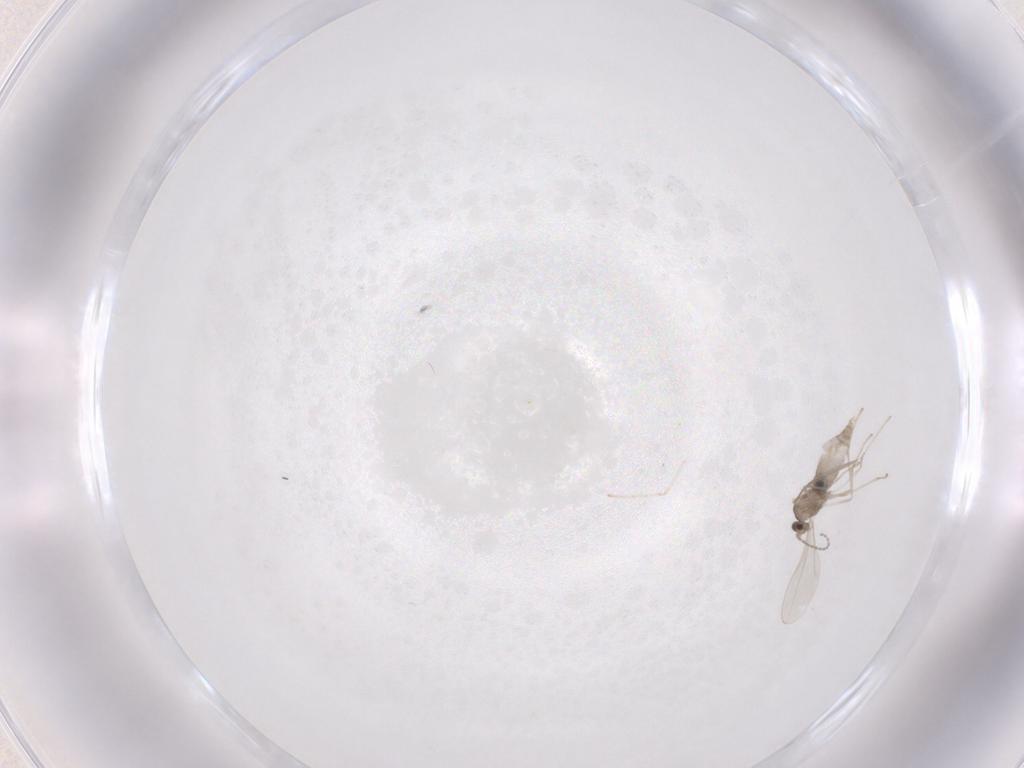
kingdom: Animalia
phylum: Arthropoda
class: Insecta
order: Diptera
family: Cecidomyiidae
